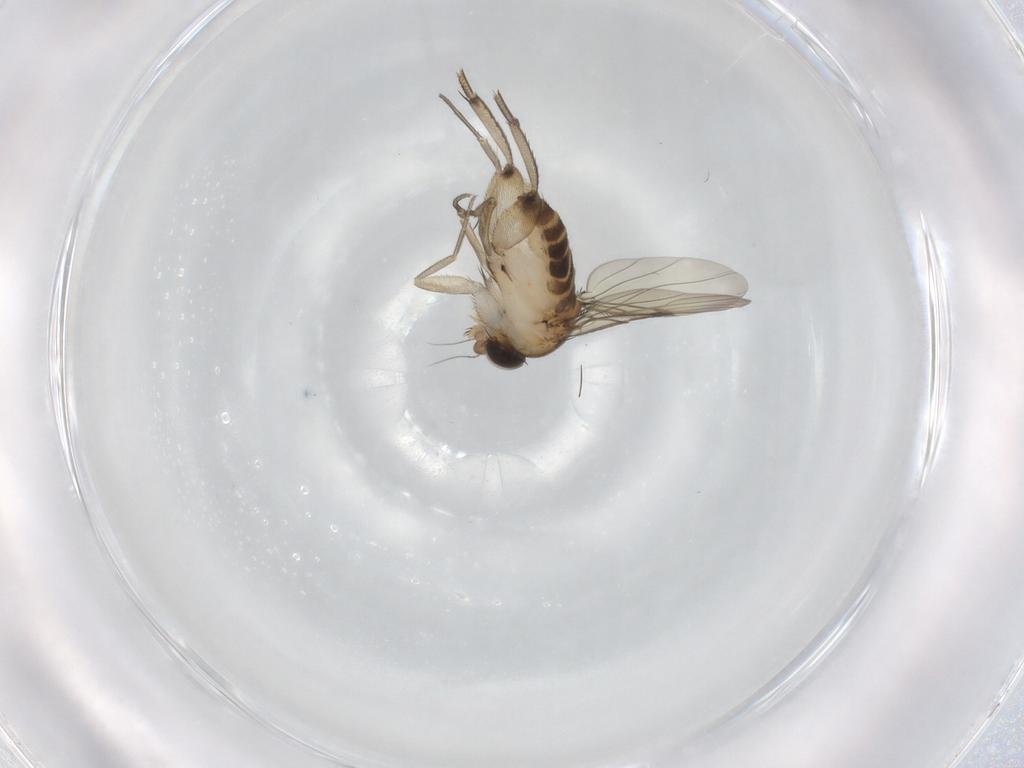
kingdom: Animalia
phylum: Arthropoda
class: Insecta
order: Diptera
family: Phoridae
